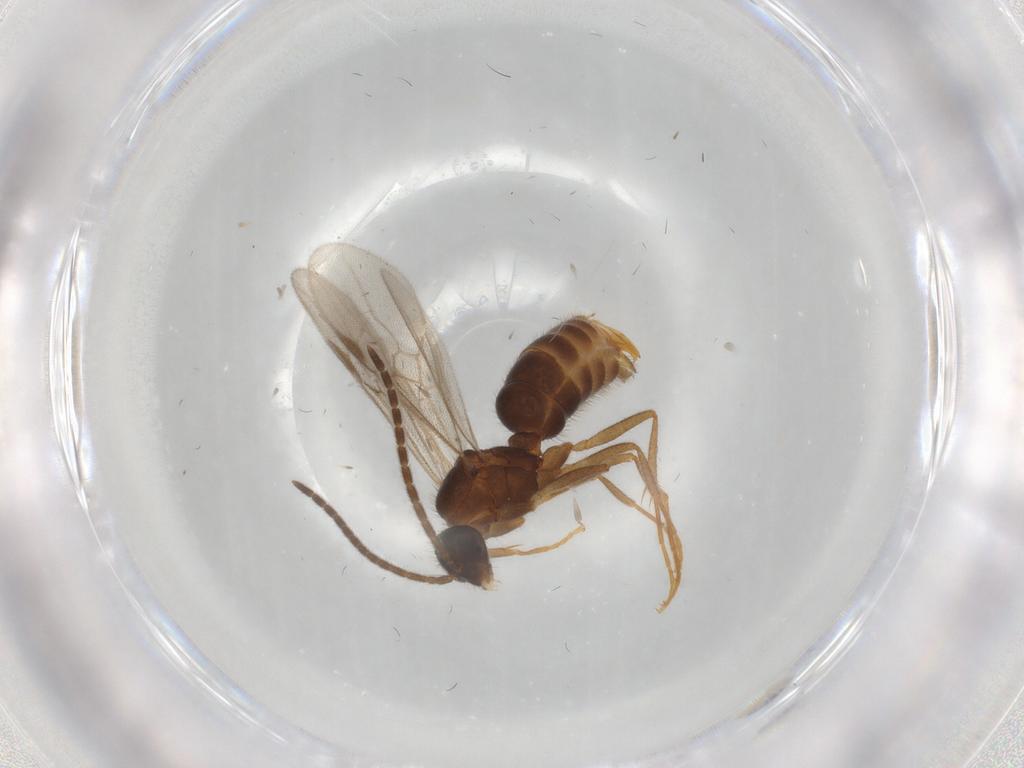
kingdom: Animalia
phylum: Arthropoda
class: Insecta
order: Hymenoptera
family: Formicidae
